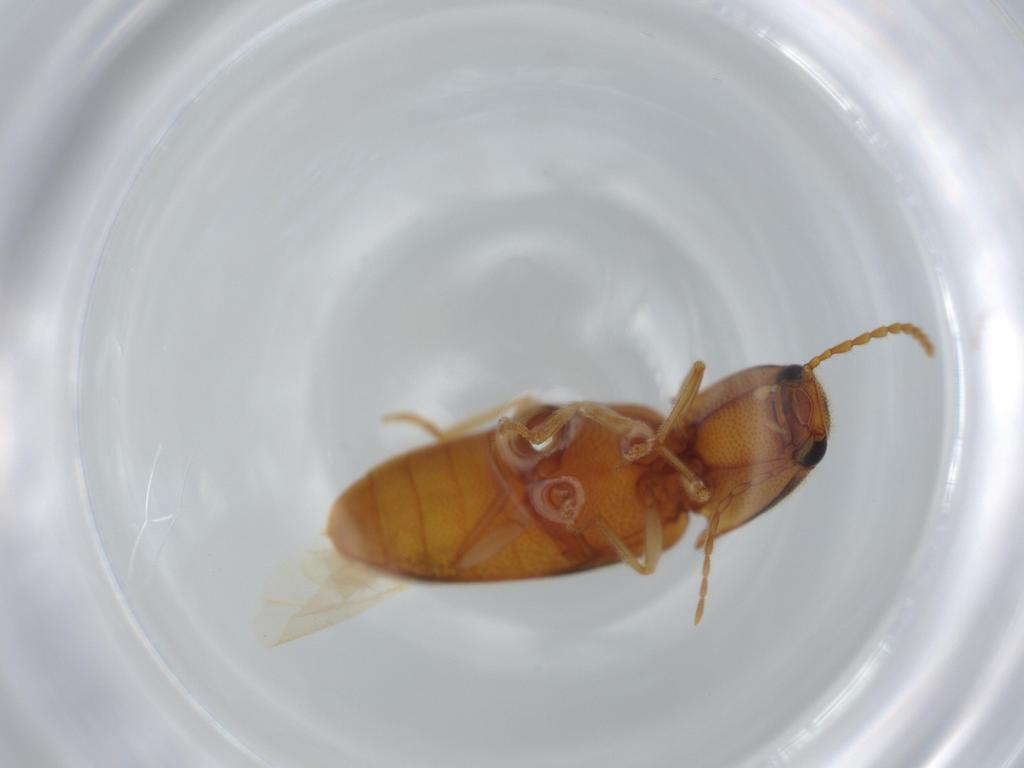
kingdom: Animalia
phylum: Arthropoda
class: Insecta
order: Coleoptera
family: Elateridae
